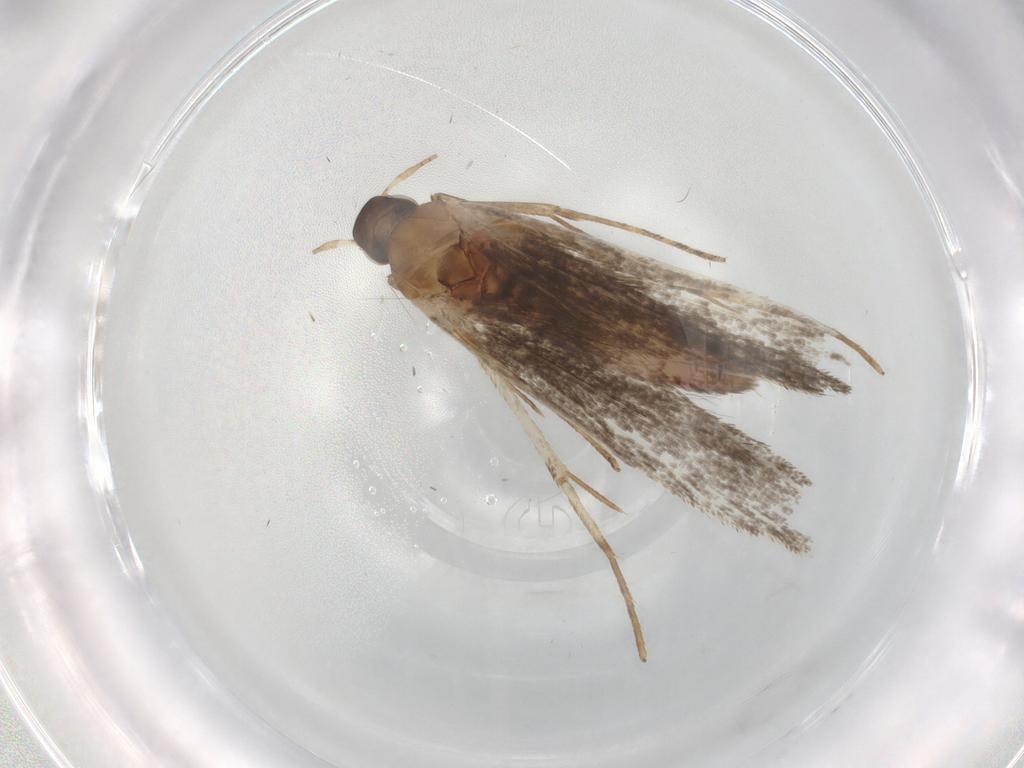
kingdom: Animalia
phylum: Arthropoda
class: Insecta
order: Lepidoptera
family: Gelechiidae
